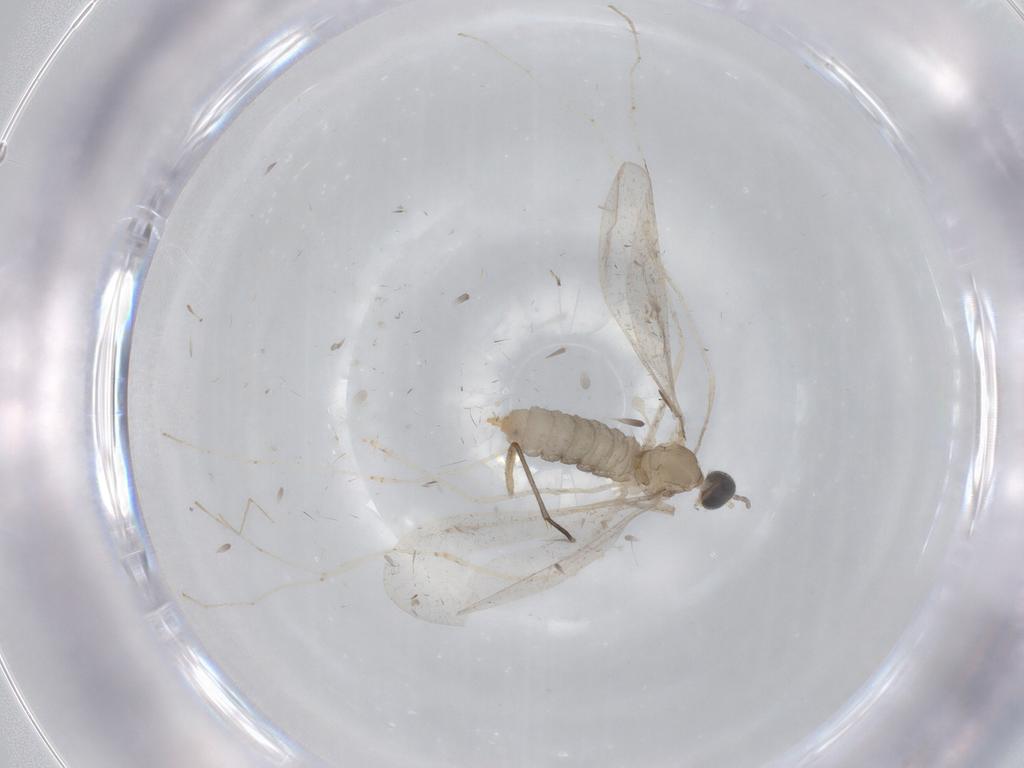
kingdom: Animalia
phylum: Arthropoda
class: Insecta
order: Diptera
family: Cecidomyiidae
